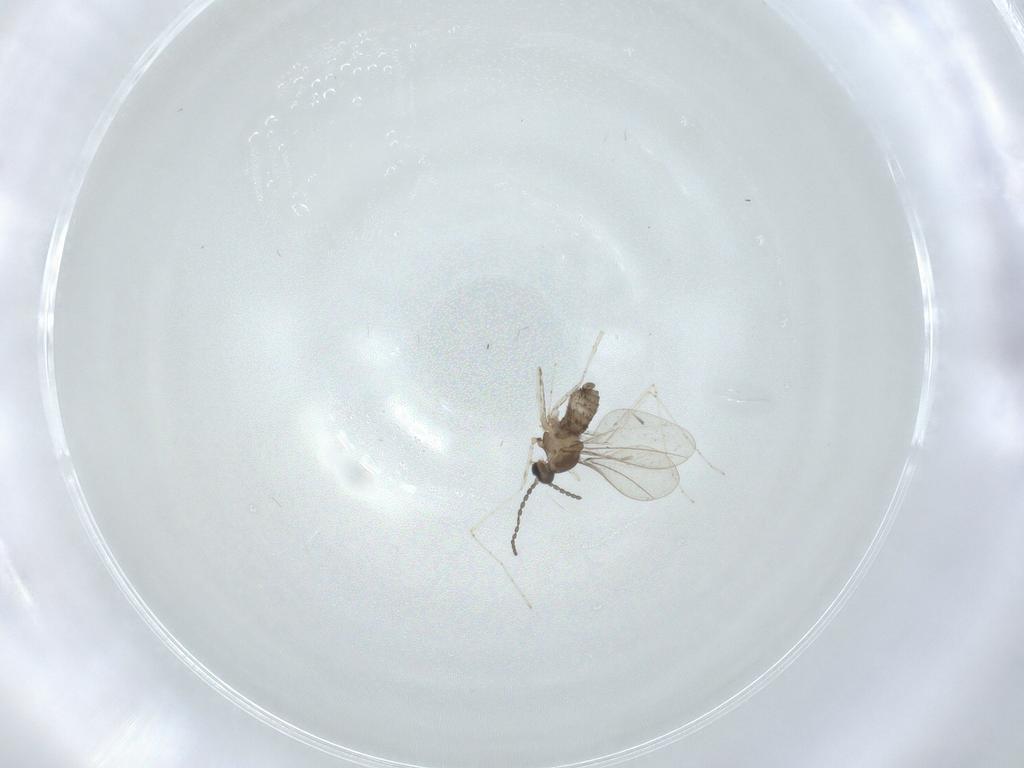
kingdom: Animalia
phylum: Arthropoda
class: Insecta
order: Diptera
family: Cecidomyiidae
